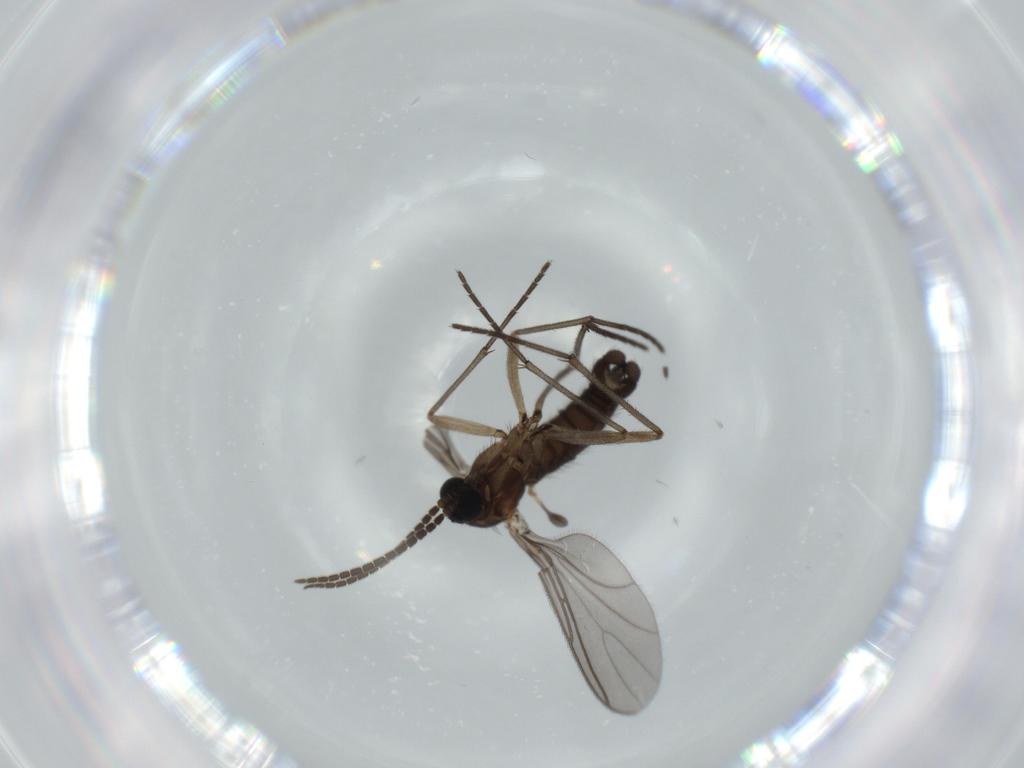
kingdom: Animalia
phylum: Arthropoda
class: Insecta
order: Diptera
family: Sciaridae
